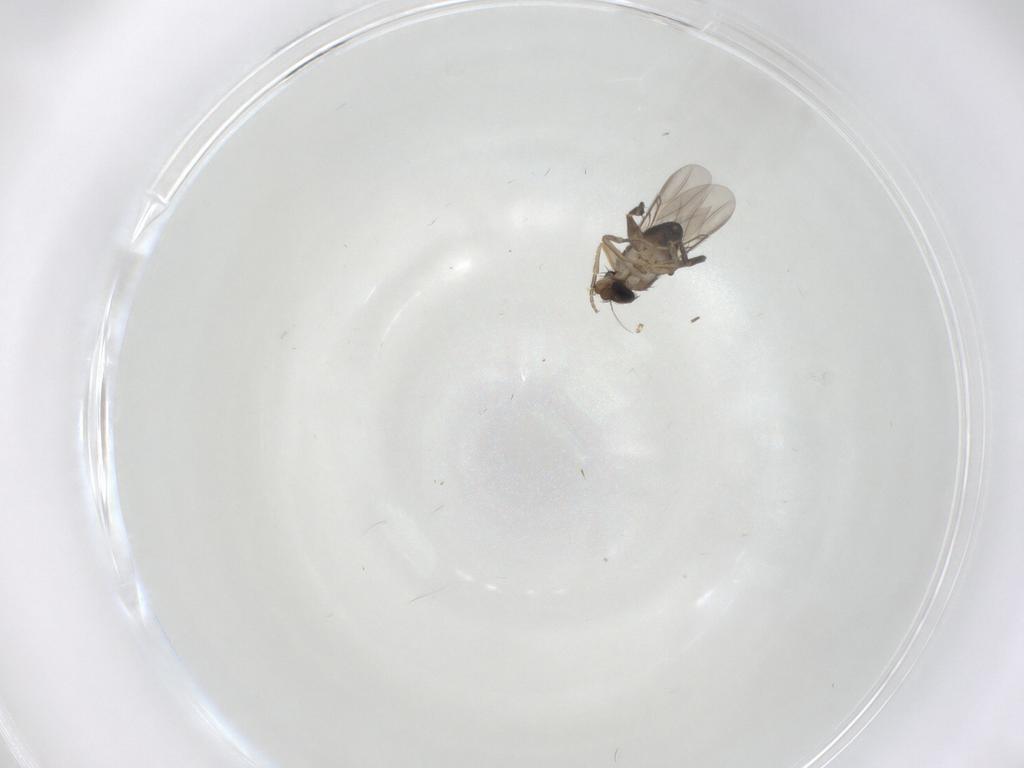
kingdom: Animalia
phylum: Arthropoda
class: Insecta
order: Diptera
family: Phoridae
